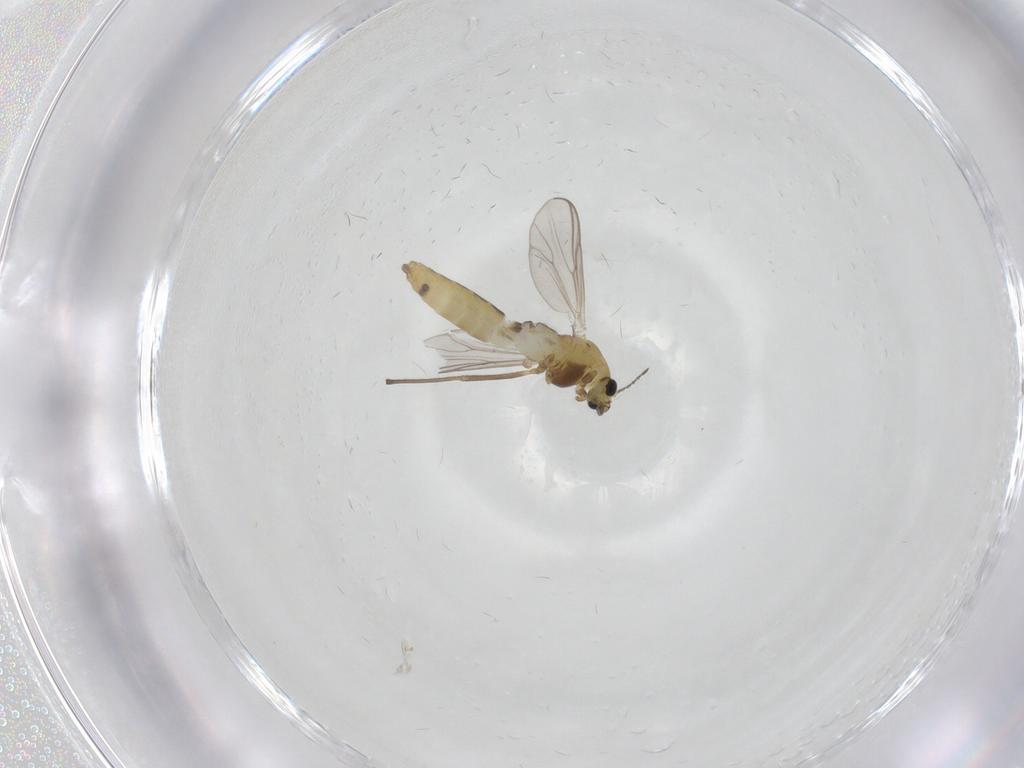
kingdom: Animalia
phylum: Arthropoda
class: Insecta
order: Diptera
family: Chironomidae
